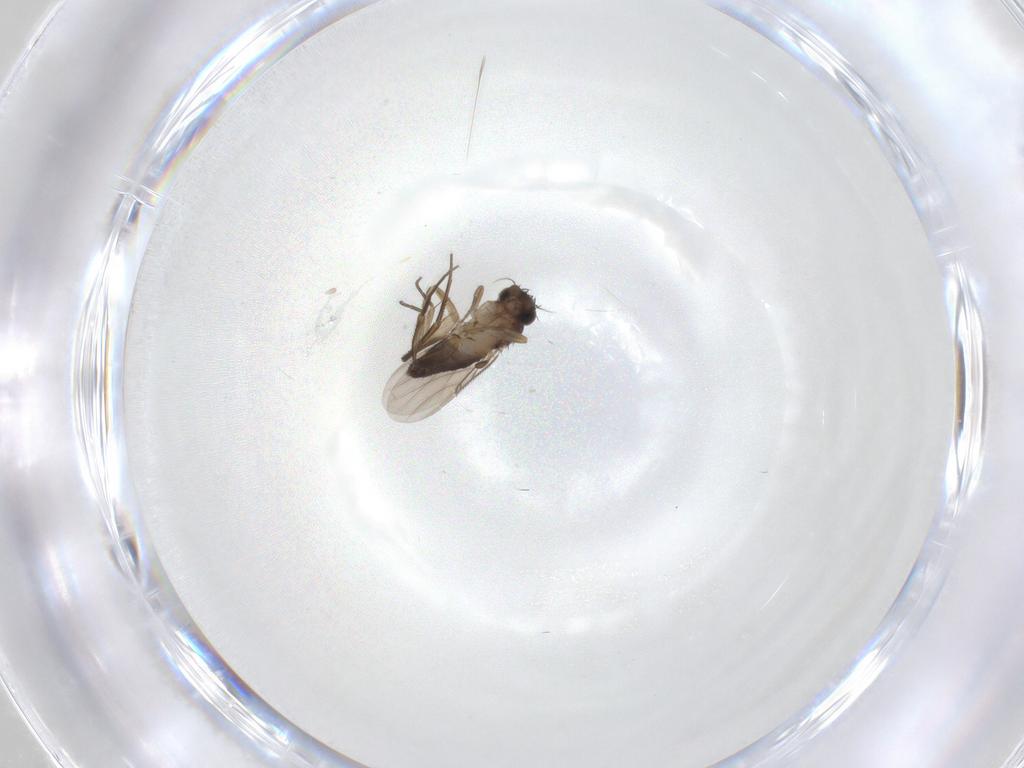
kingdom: Animalia
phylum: Arthropoda
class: Insecta
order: Diptera
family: Phoridae
